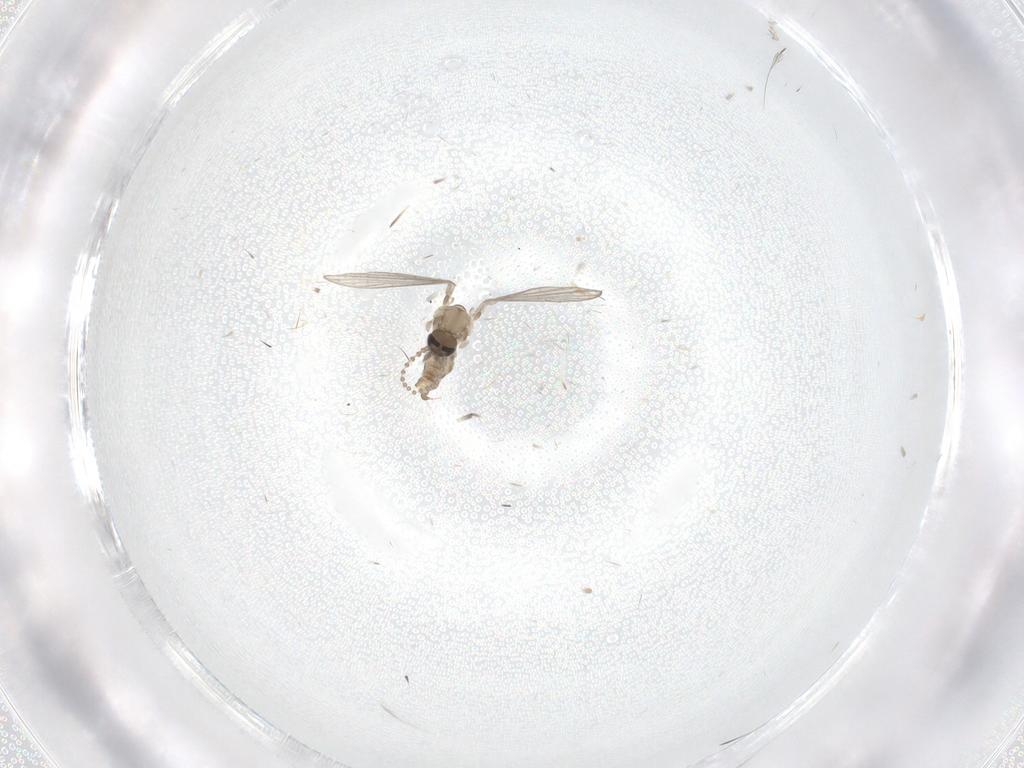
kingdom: Animalia
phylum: Arthropoda
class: Insecta
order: Diptera
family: Psychodidae
